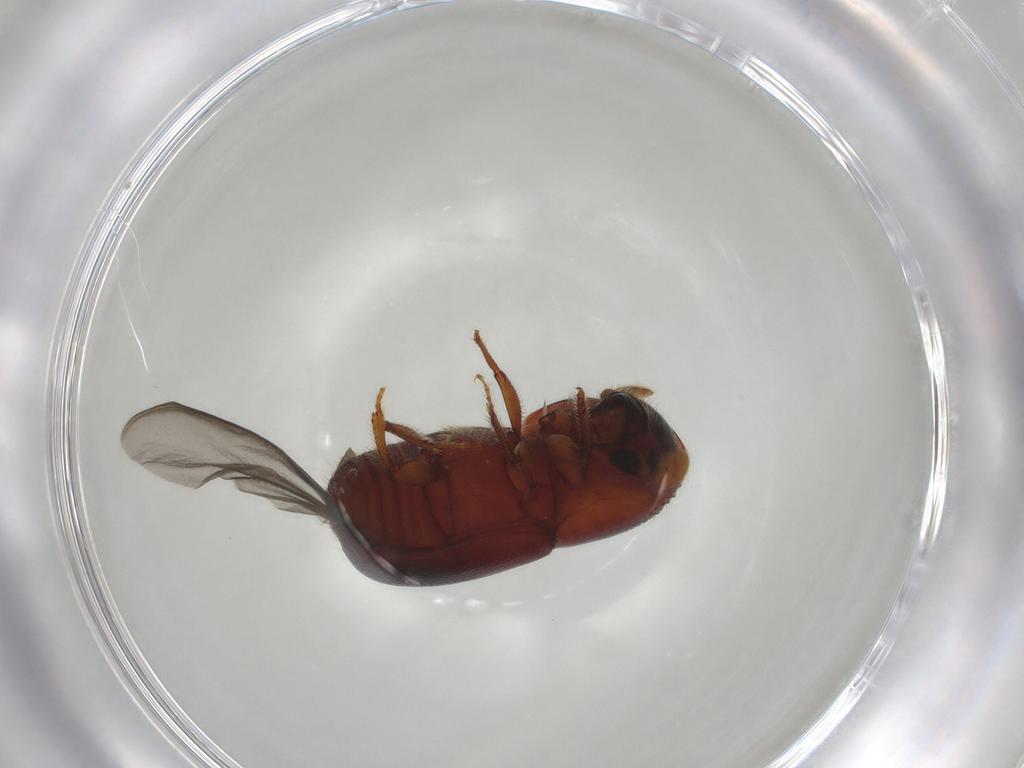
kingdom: Animalia
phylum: Arthropoda
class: Insecta
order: Coleoptera
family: Curculionidae
